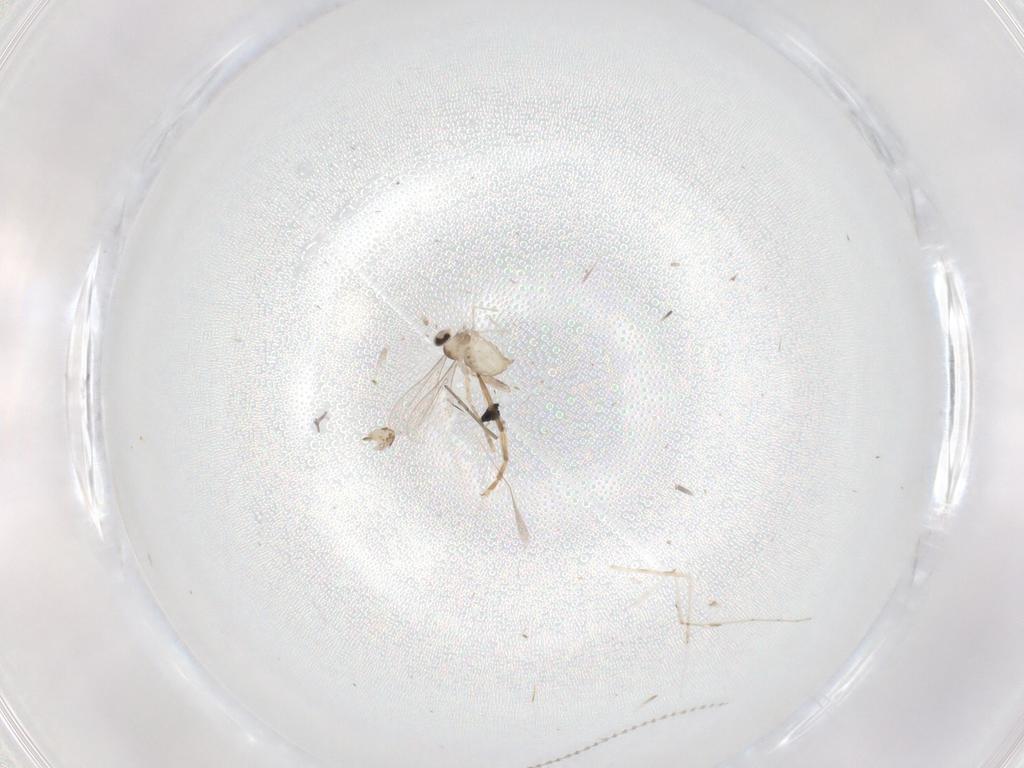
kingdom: Animalia
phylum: Arthropoda
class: Insecta
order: Diptera
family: Cecidomyiidae
